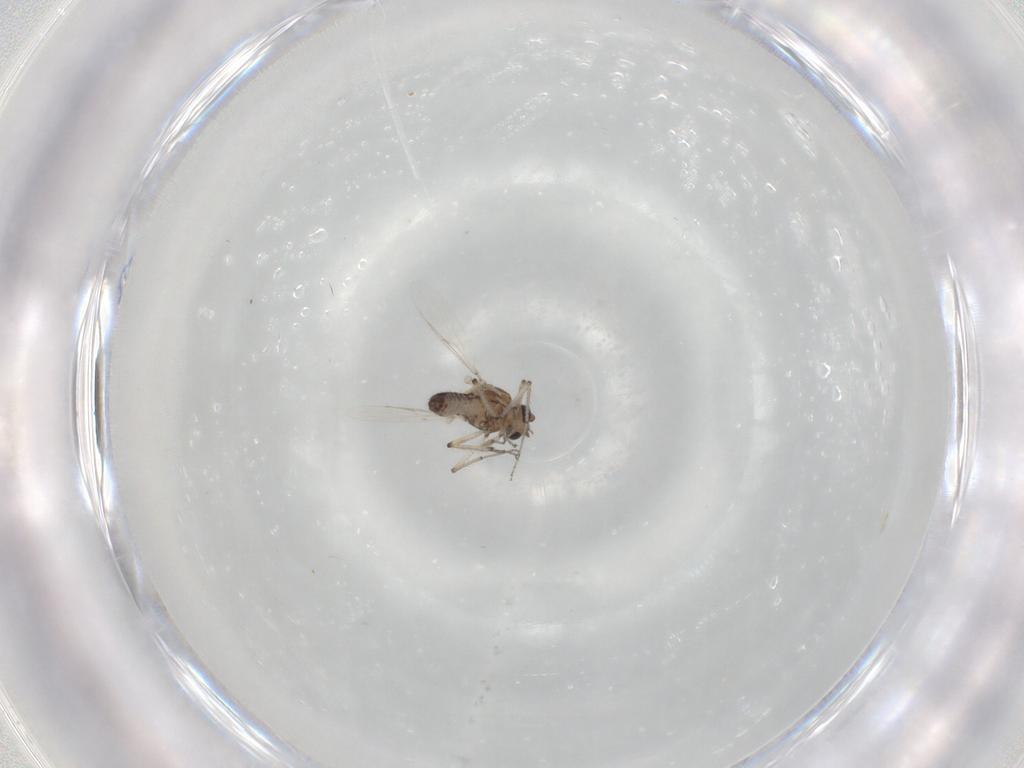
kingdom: Animalia
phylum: Arthropoda
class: Insecta
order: Diptera
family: Ceratopogonidae
